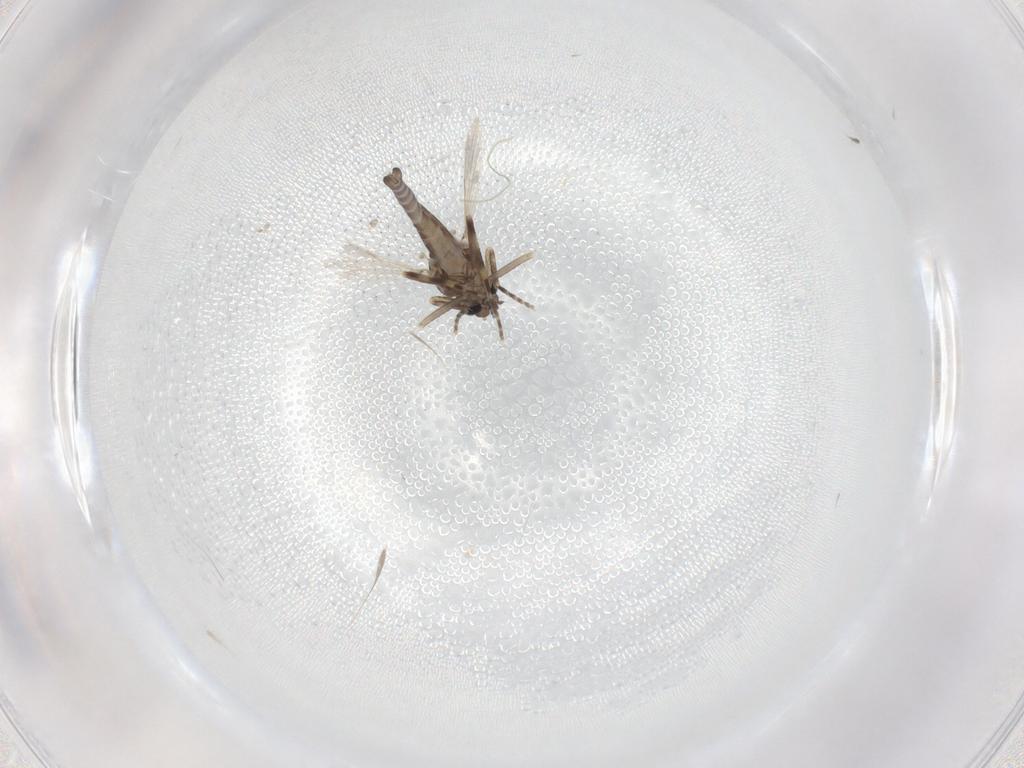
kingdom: Animalia
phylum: Arthropoda
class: Insecta
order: Diptera
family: Ceratopogonidae
